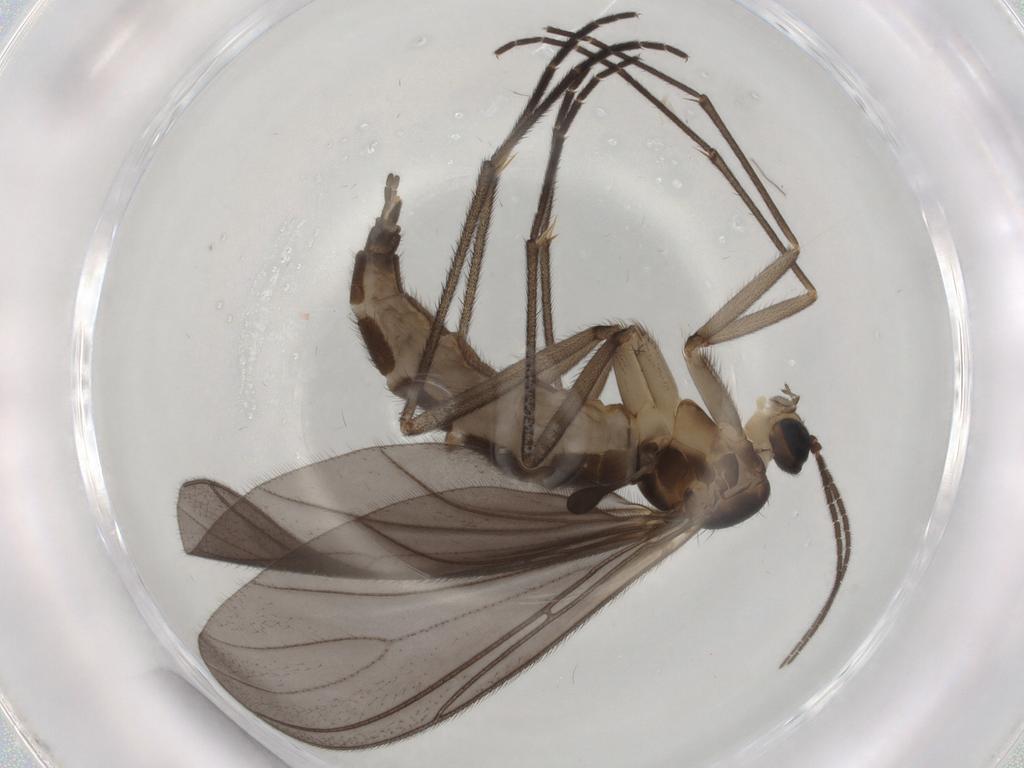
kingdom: Animalia
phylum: Arthropoda
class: Insecta
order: Diptera
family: Sciaridae
